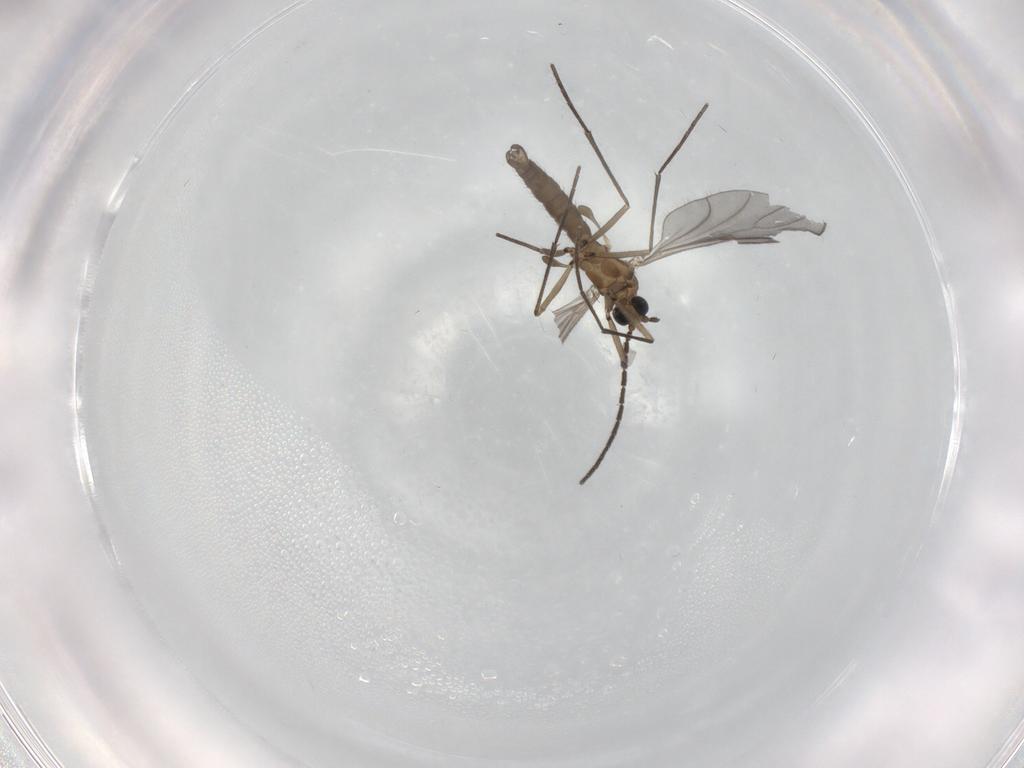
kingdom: Animalia
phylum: Arthropoda
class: Insecta
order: Diptera
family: Sciaridae
